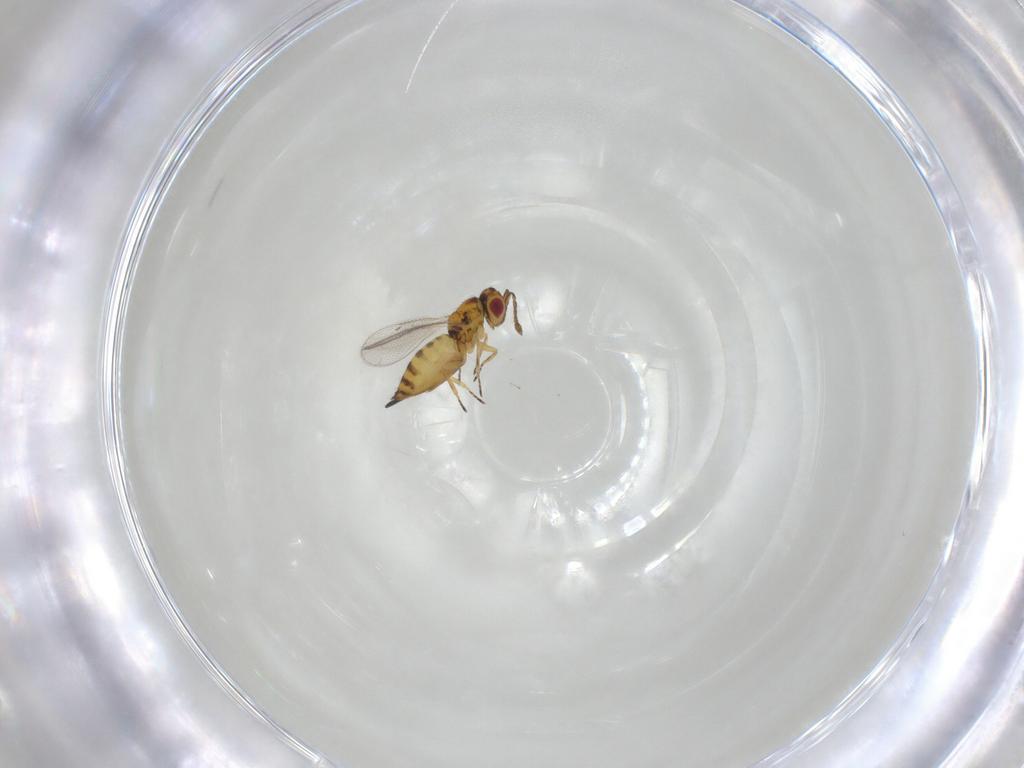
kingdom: Animalia
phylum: Arthropoda
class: Insecta
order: Hymenoptera
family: Eulophidae
